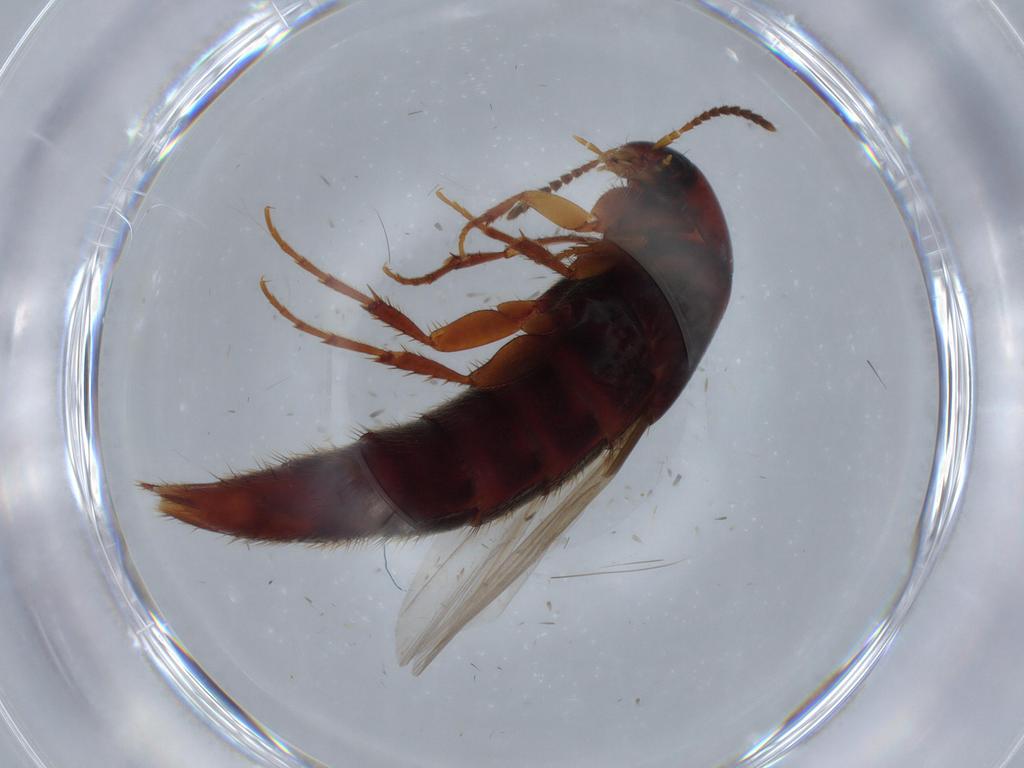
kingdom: Animalia
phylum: Arthropoda
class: Insecta
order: Coleoptera
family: Staphylinidae
